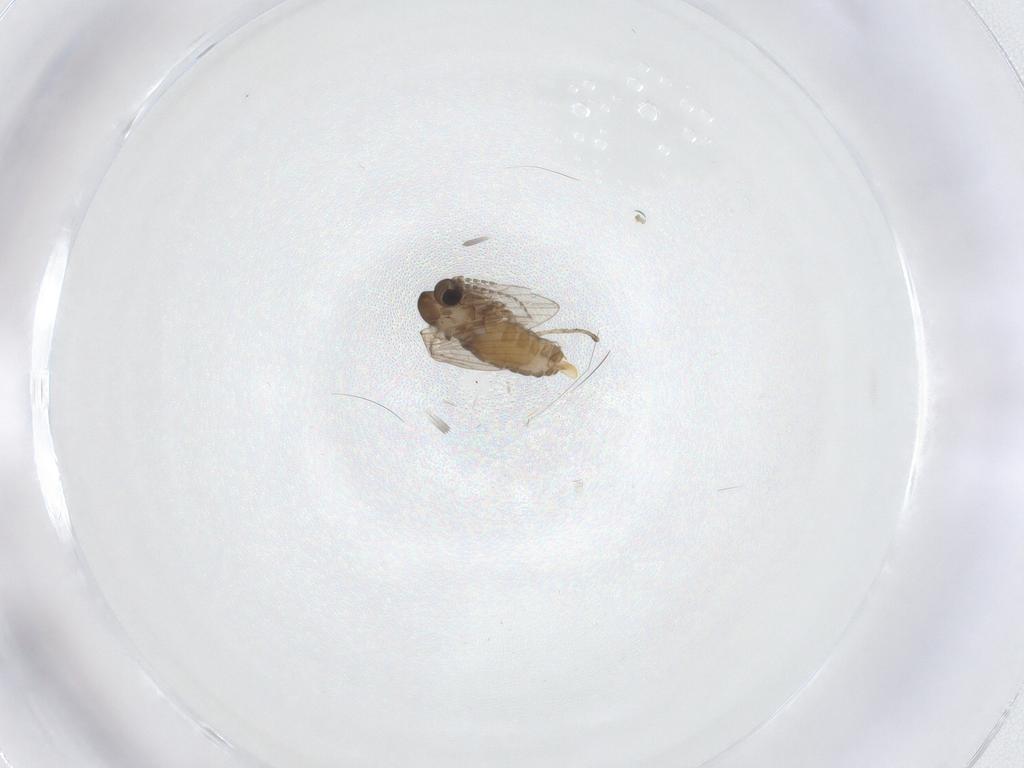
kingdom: Animalia
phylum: Arthropoda
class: Insecta
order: Diptera
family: Psychodidae
